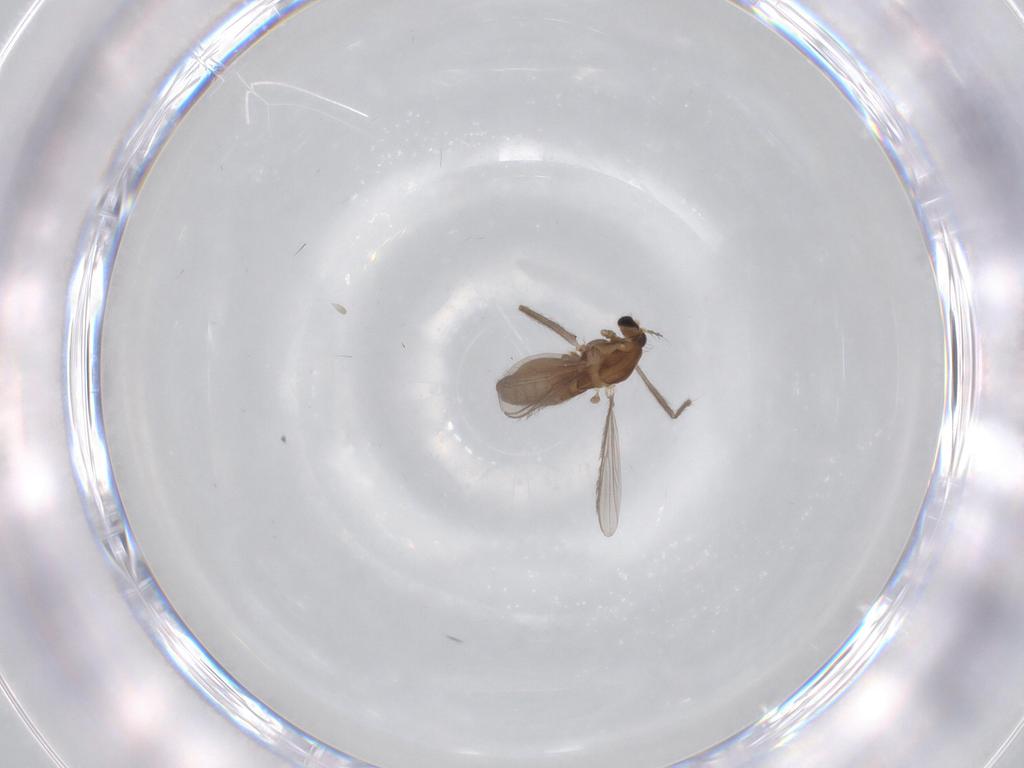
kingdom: Animalia
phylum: Arthropoda
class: Insecta
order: Diptera
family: Chironomidae
